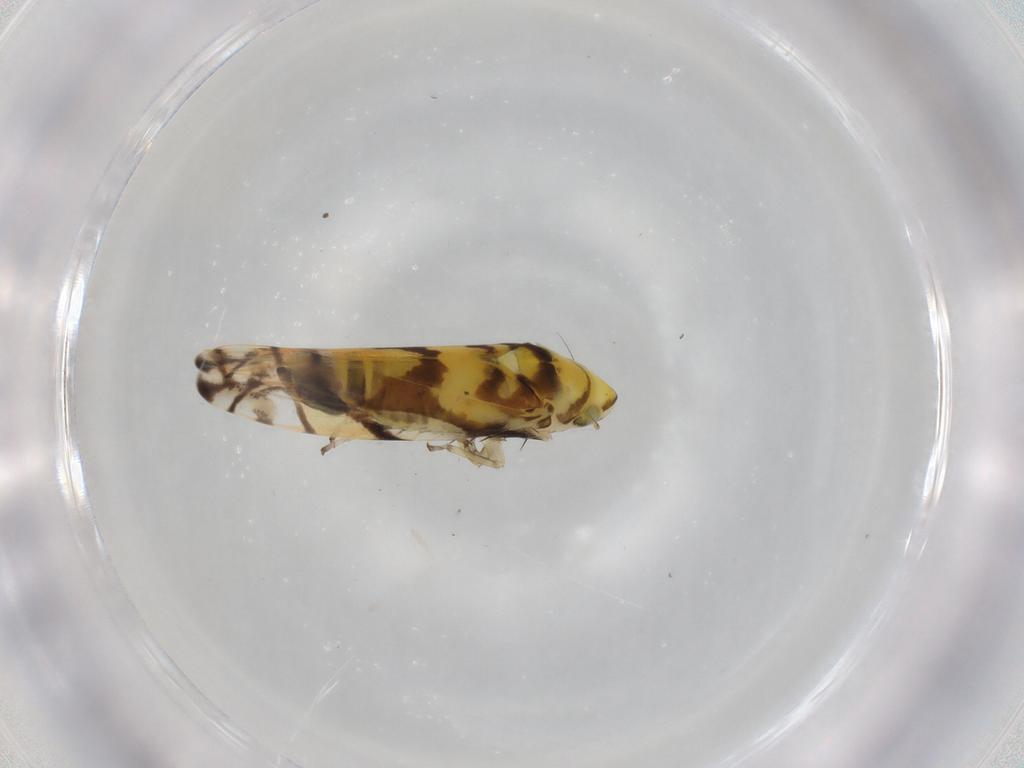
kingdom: Animalia
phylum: Arthropoda
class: Insecta
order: Hemiptera
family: Cicadellidae
